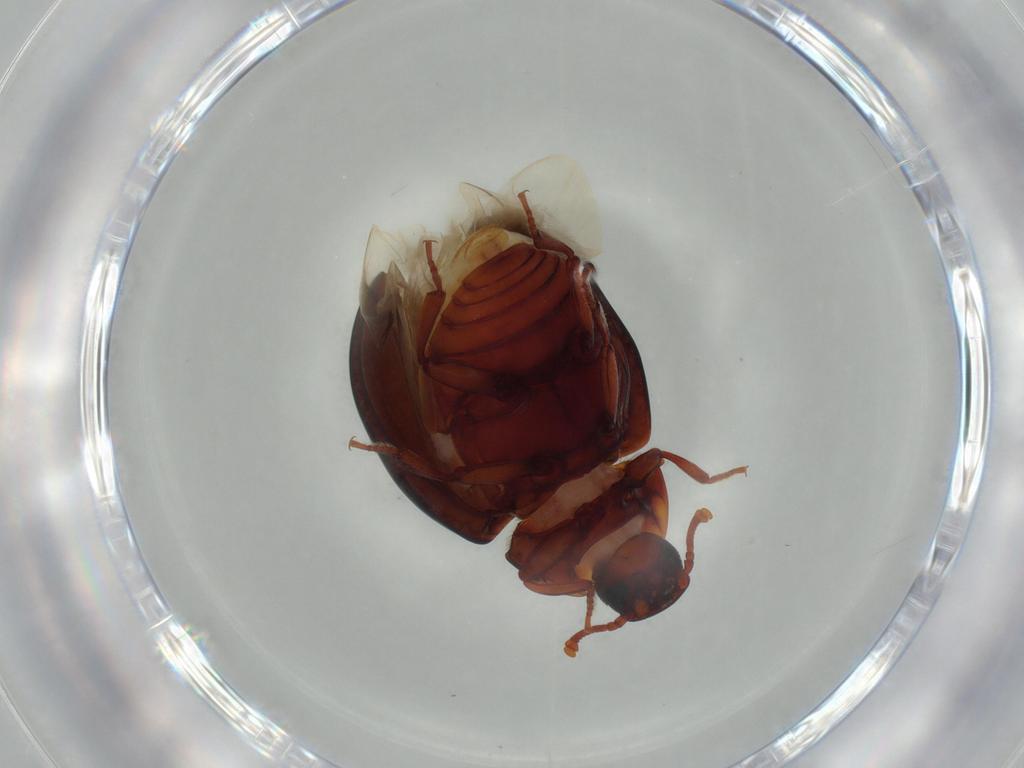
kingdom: Animalia
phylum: Arthropoda
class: Insecta
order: Coleoptera
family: Zopheridae
